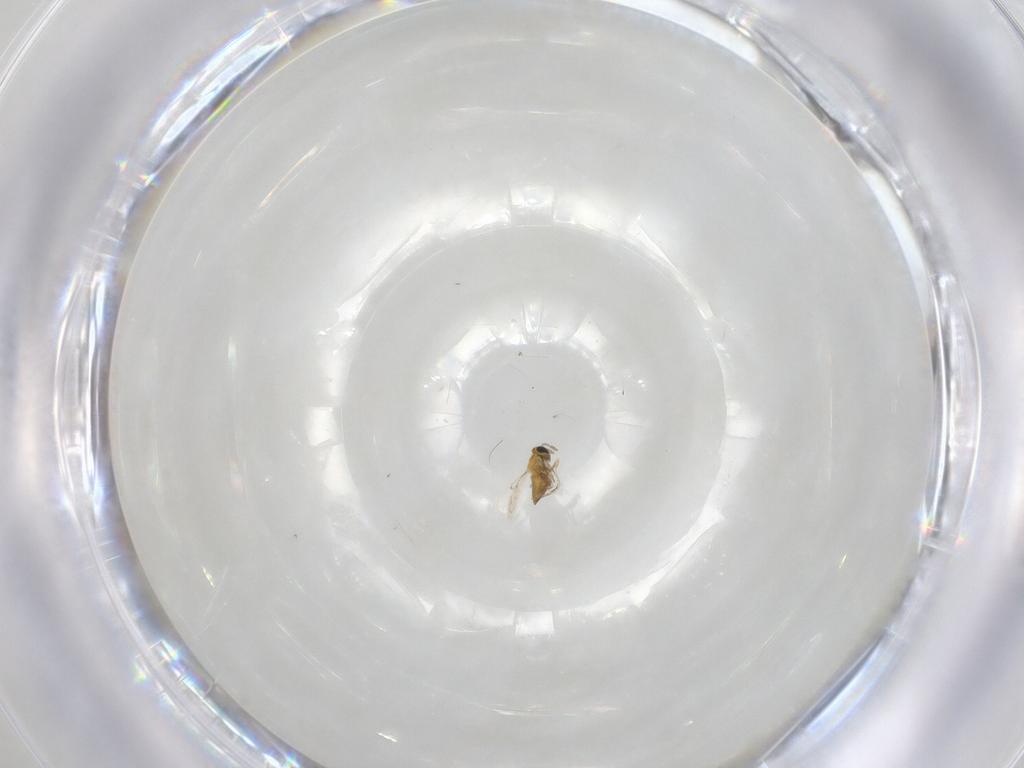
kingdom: Animalia
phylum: Arthropoda
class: Insecta
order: Hymenoptera
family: Trichogrammatidae
